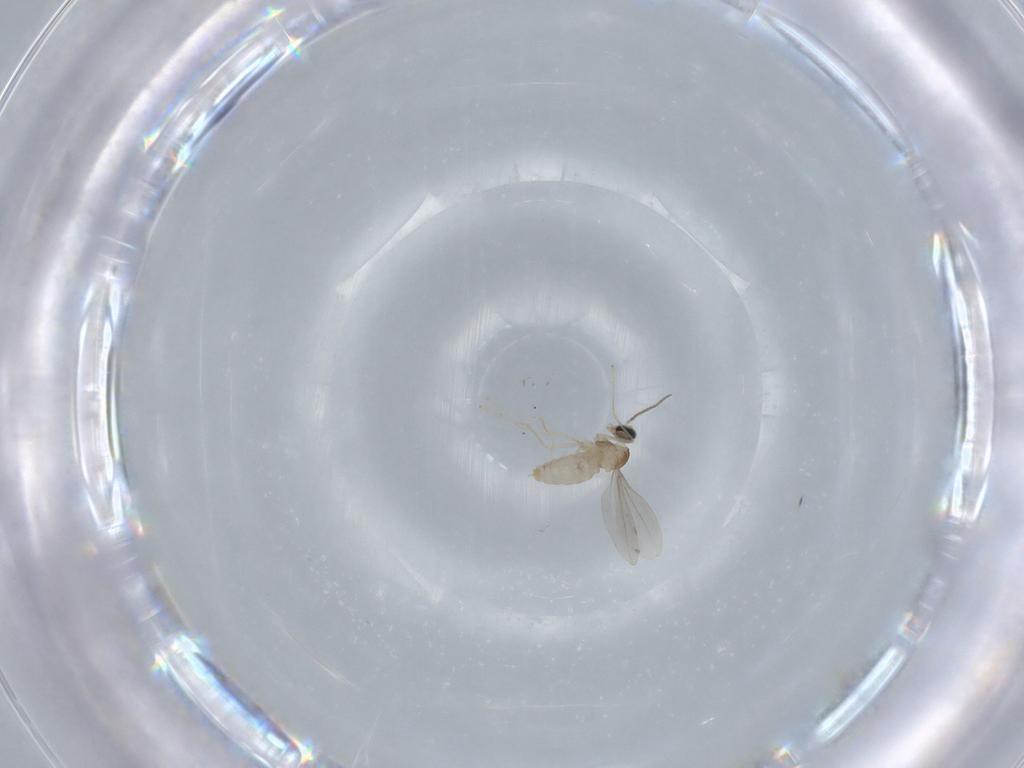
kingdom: Animalia
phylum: Arthropoda
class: Insecta
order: Diptera
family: Cecidomyiidae
